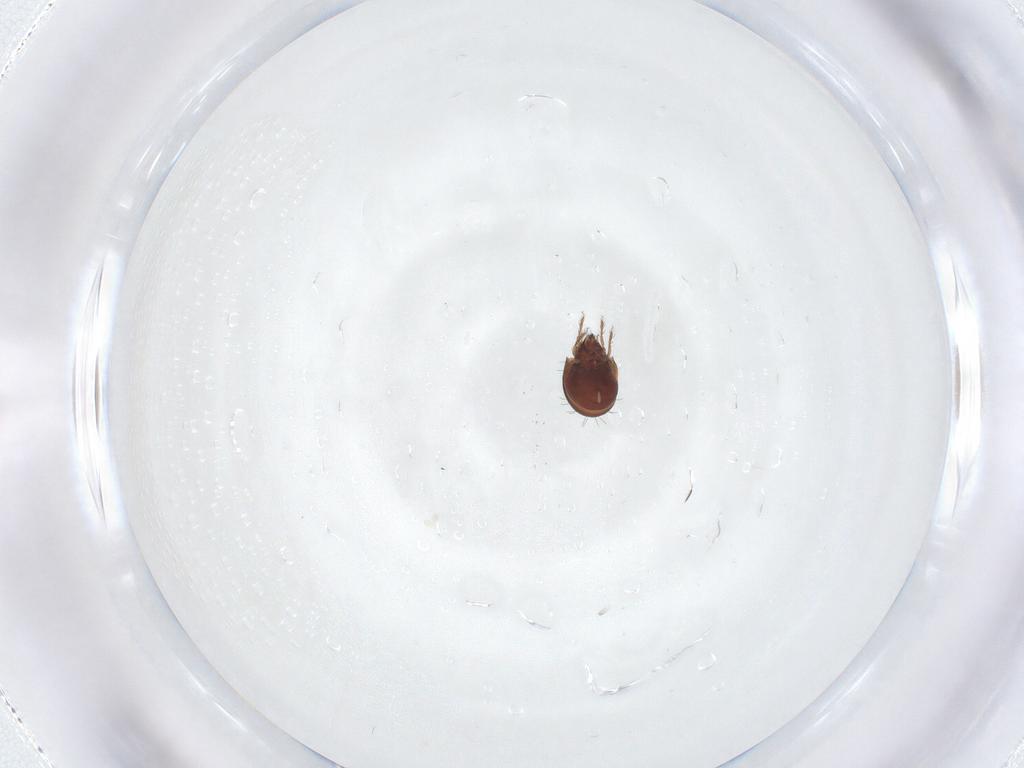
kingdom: Animalia
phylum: Arthropoda
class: Arachnida
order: Sarcoptiformes
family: Ceratozetidae
